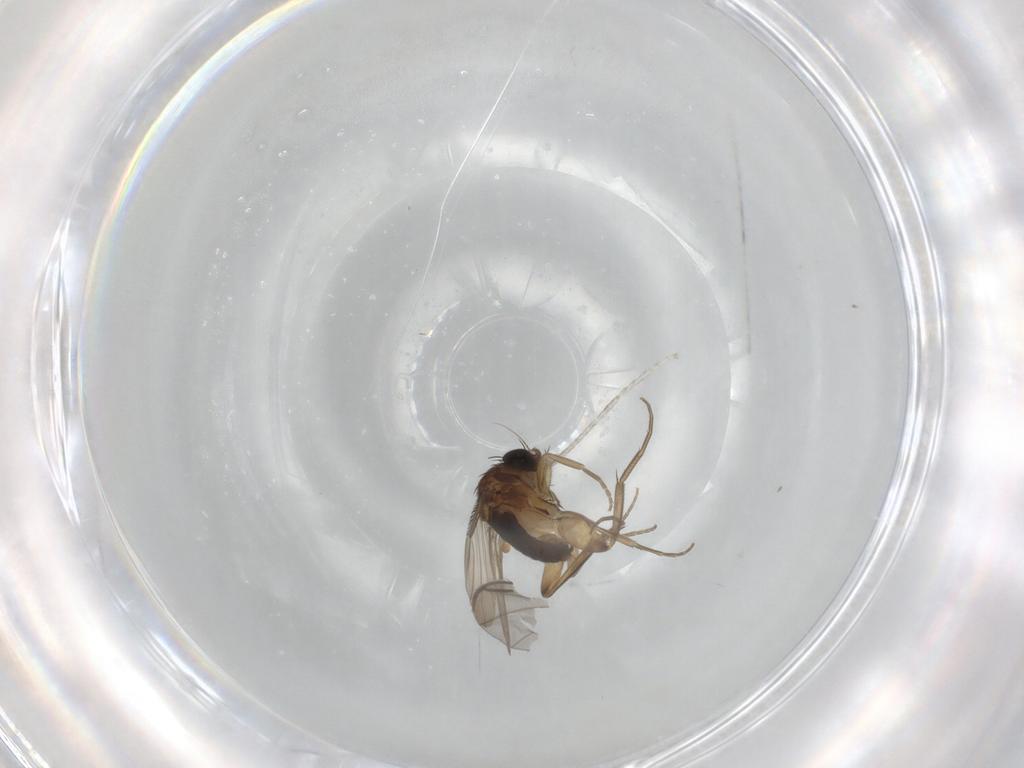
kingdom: Animalia
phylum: Arthropoda
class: Insecta
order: Diptera
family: Phoridae
